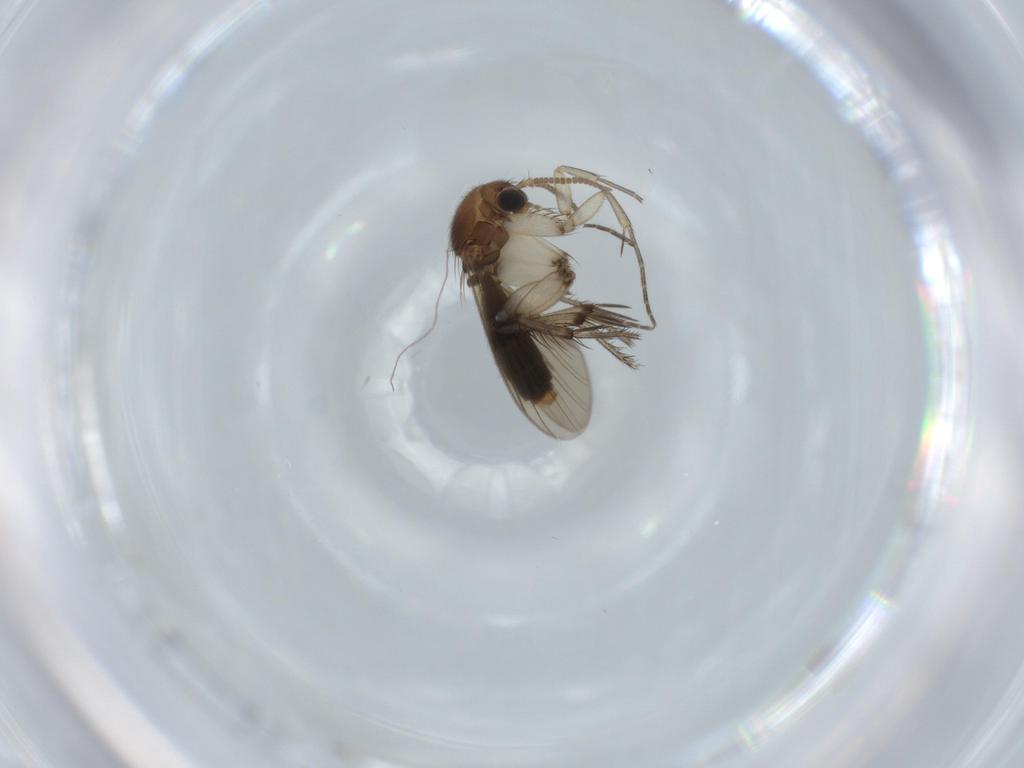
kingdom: Animalia
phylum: Arthropoda
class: Insecta
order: Diptera
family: Mycetophilidae
